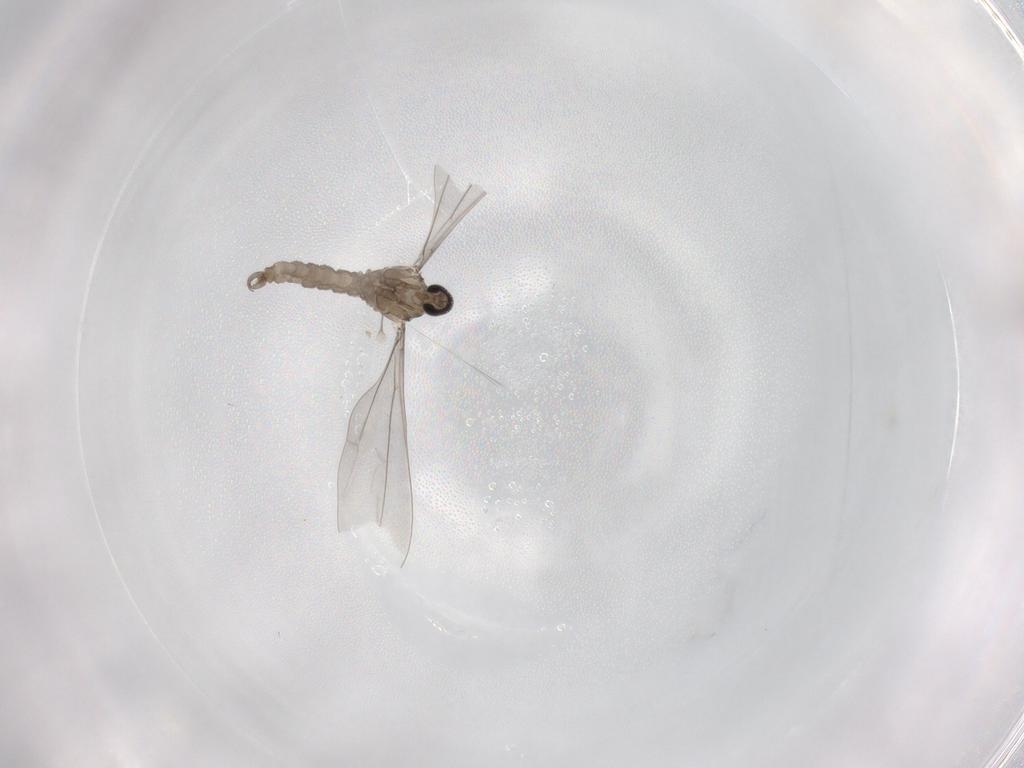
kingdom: Animalia
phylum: Arthropoda
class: Insecta
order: Diptera
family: Cecidomyiidae
